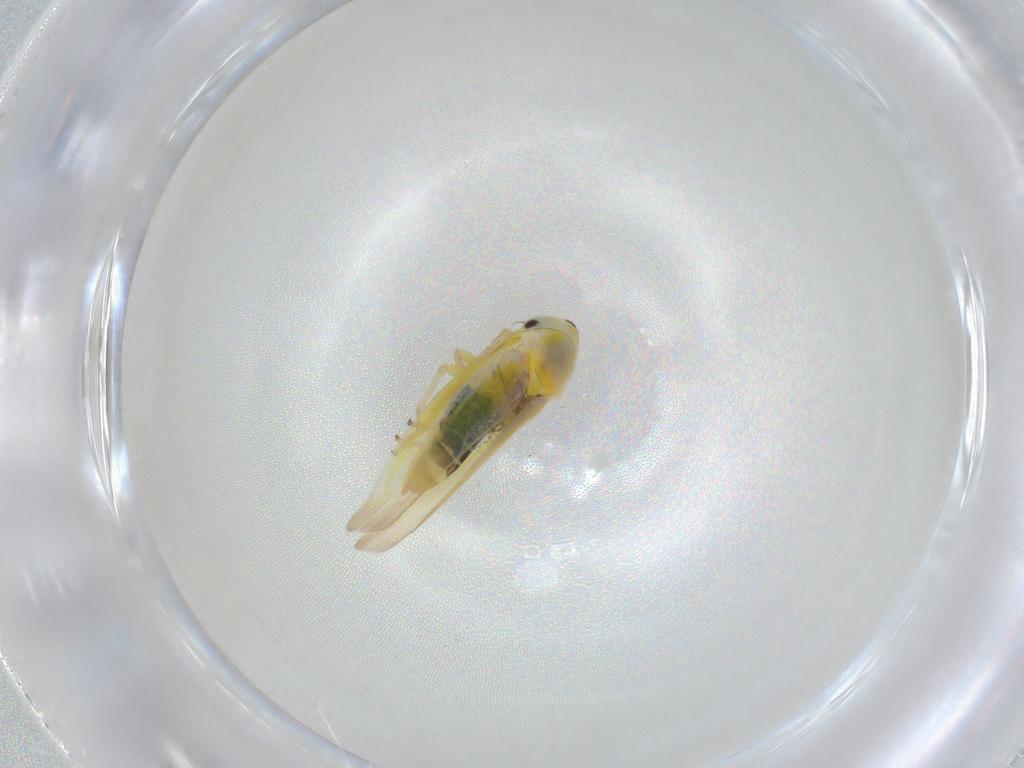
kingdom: Animalia
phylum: Arthropoda
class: Insecta
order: Hemiptera
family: Cicadellidae
